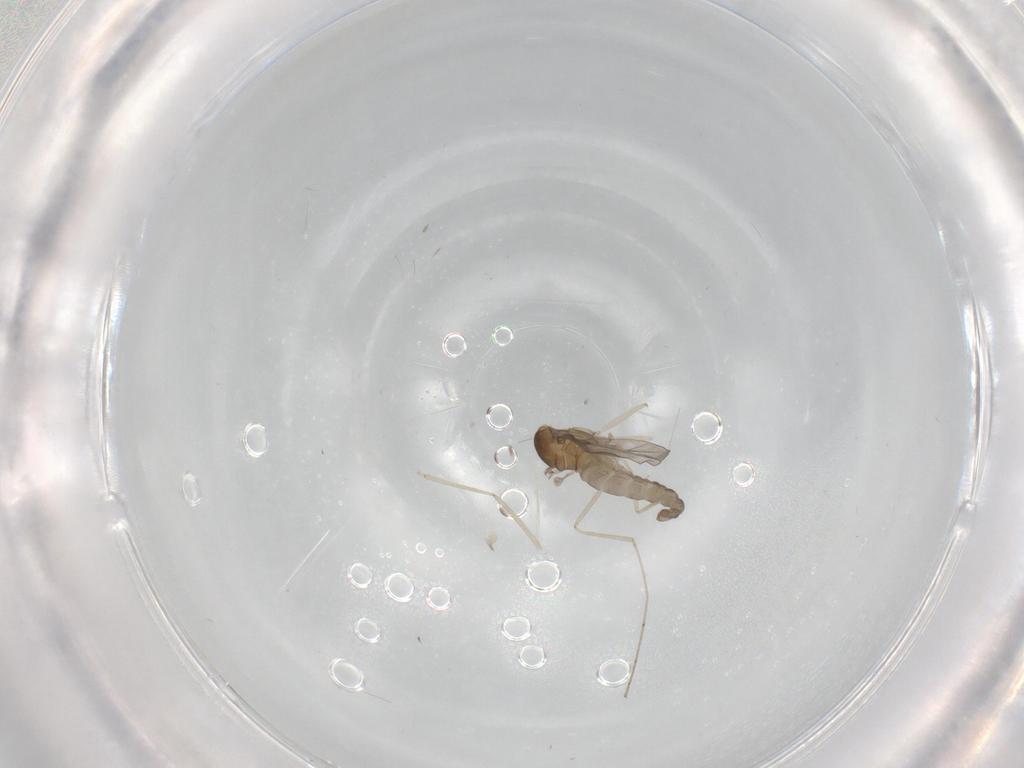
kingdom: Animalia
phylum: Arthropoda
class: Insecta
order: Diptera
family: Cecidomyiidae
